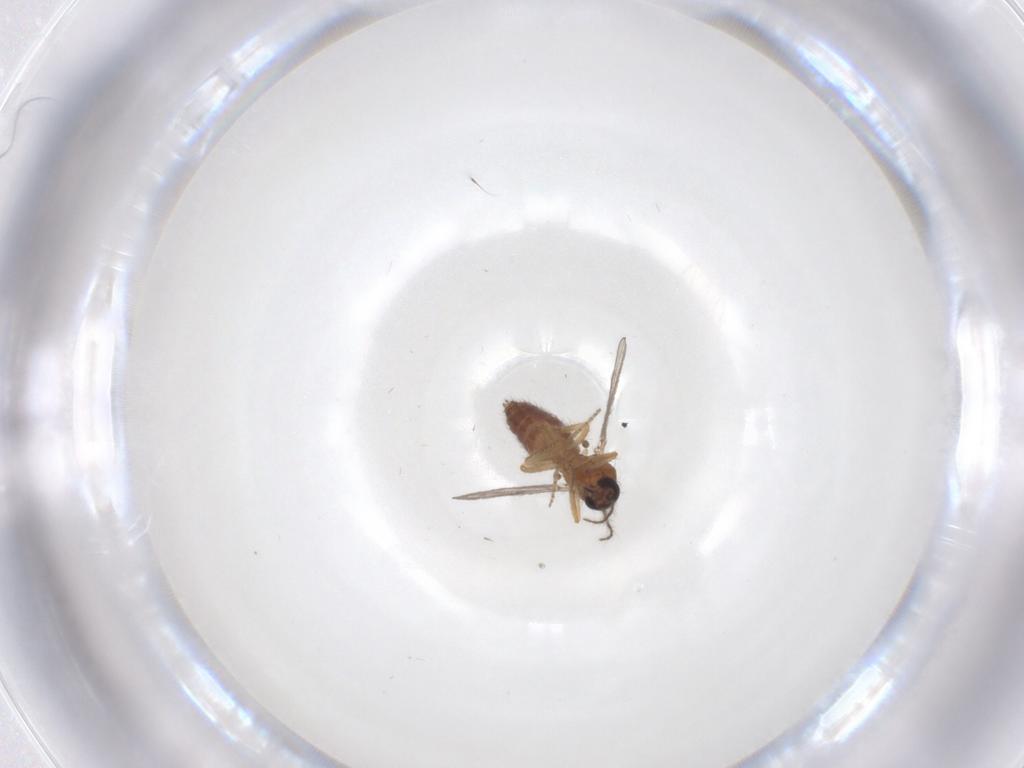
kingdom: Animalia
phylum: Arthropoda
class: Insecta
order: Diptera
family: Ceratopogonidae
